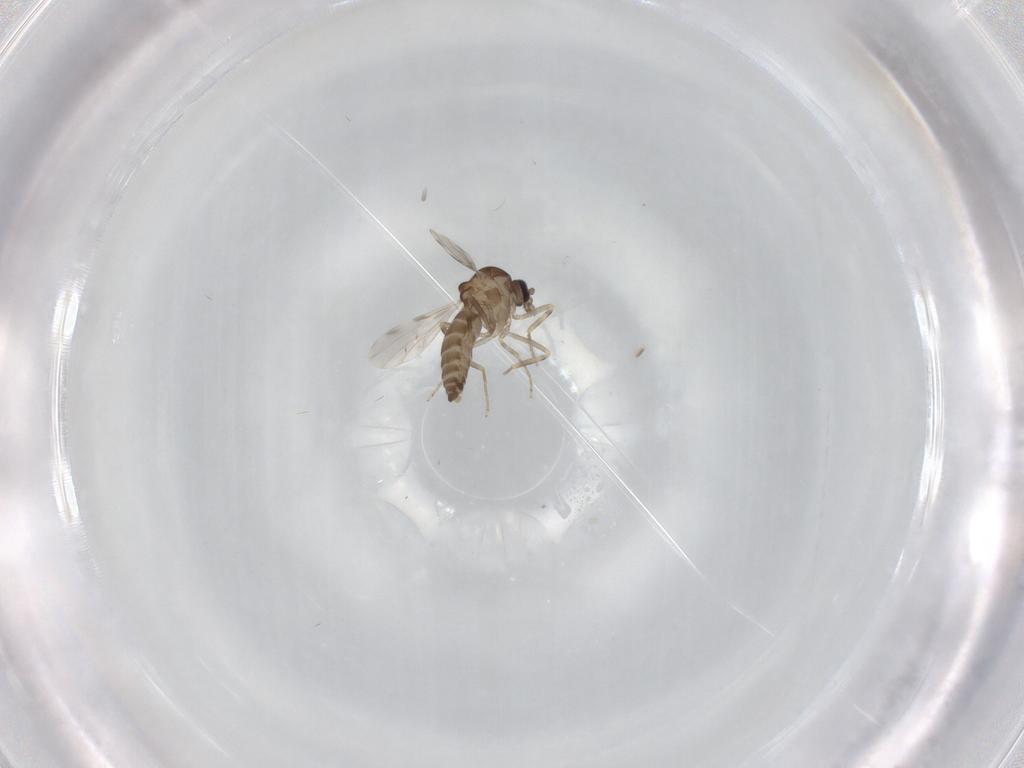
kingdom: Animalia
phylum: Arthropoda
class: Insecta
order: Diptera
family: Ceratopogonidae
